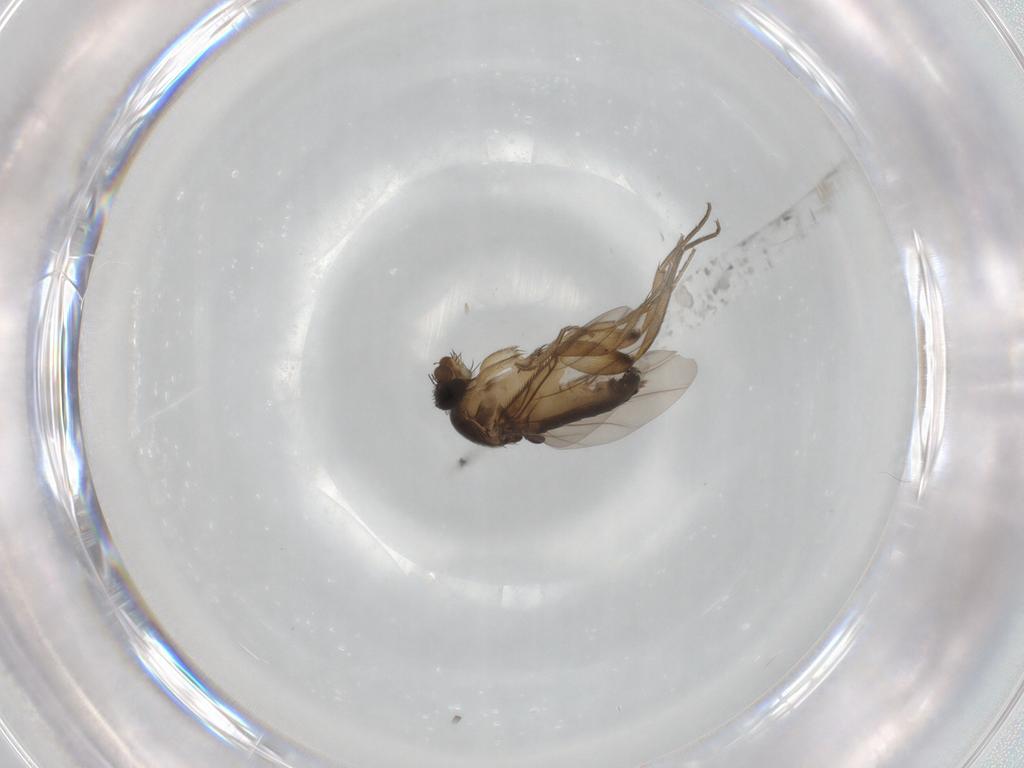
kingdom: Animalia
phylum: Arthropoda
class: Insecta
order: Diptera
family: Phoridae
